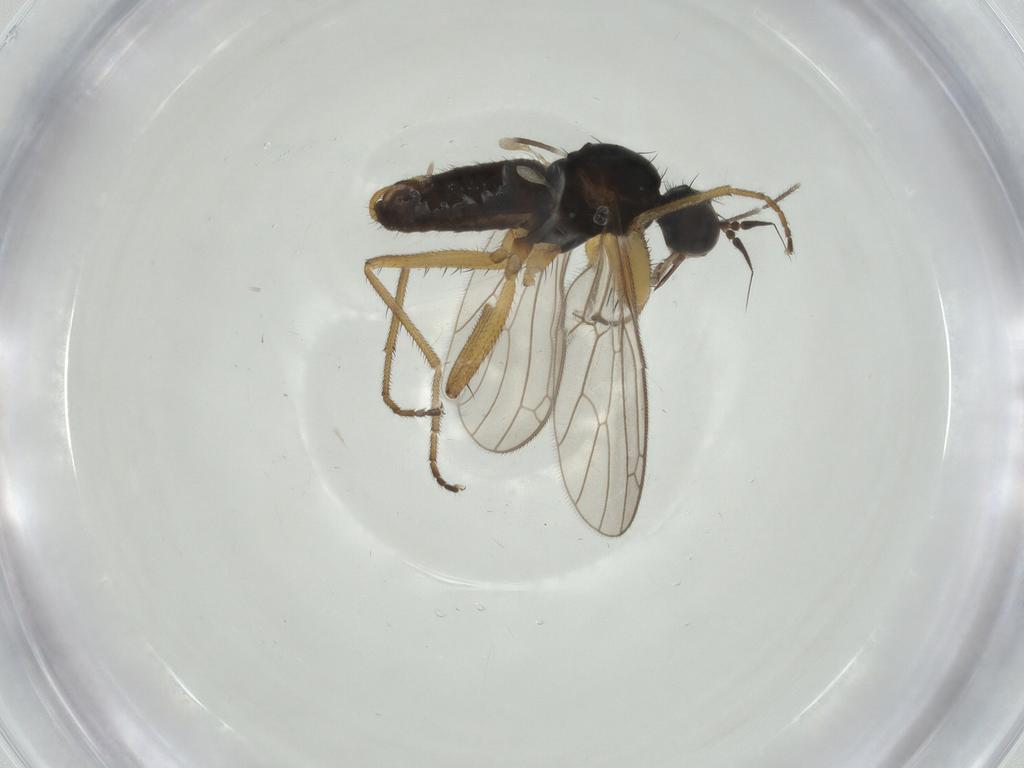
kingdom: Animalia
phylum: Arthropoda
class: Insecta
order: Diptera
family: Empididae
